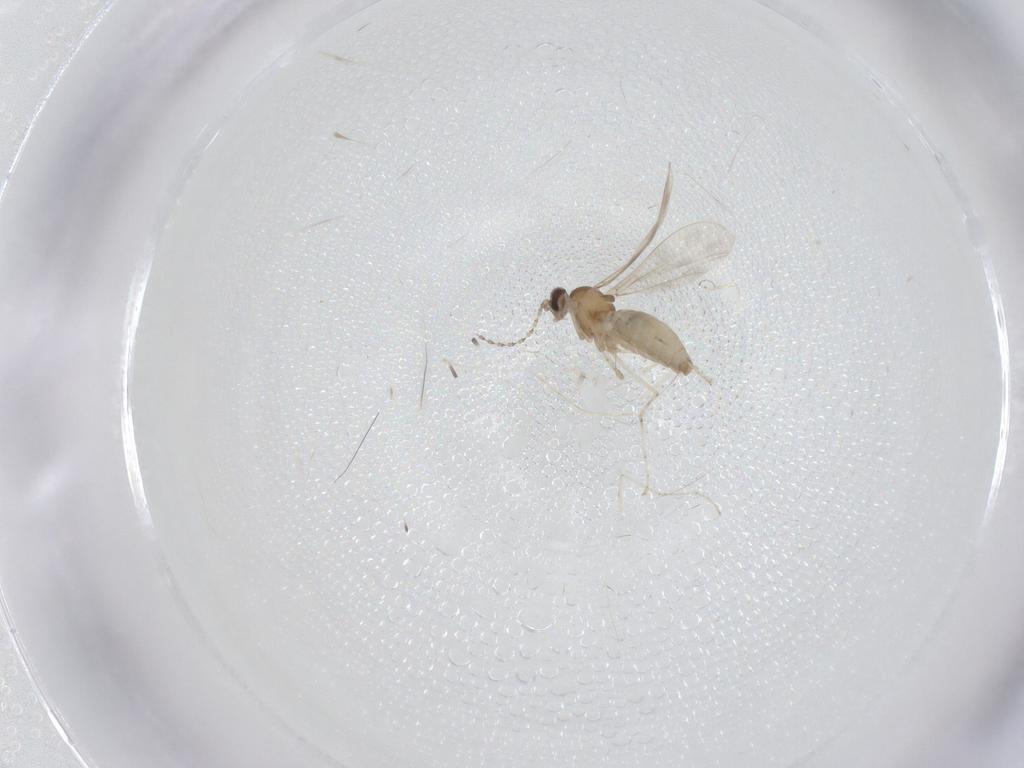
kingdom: Animalia
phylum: Arthropoda
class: Insecta
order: Diptera
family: Cecidomyiidae
